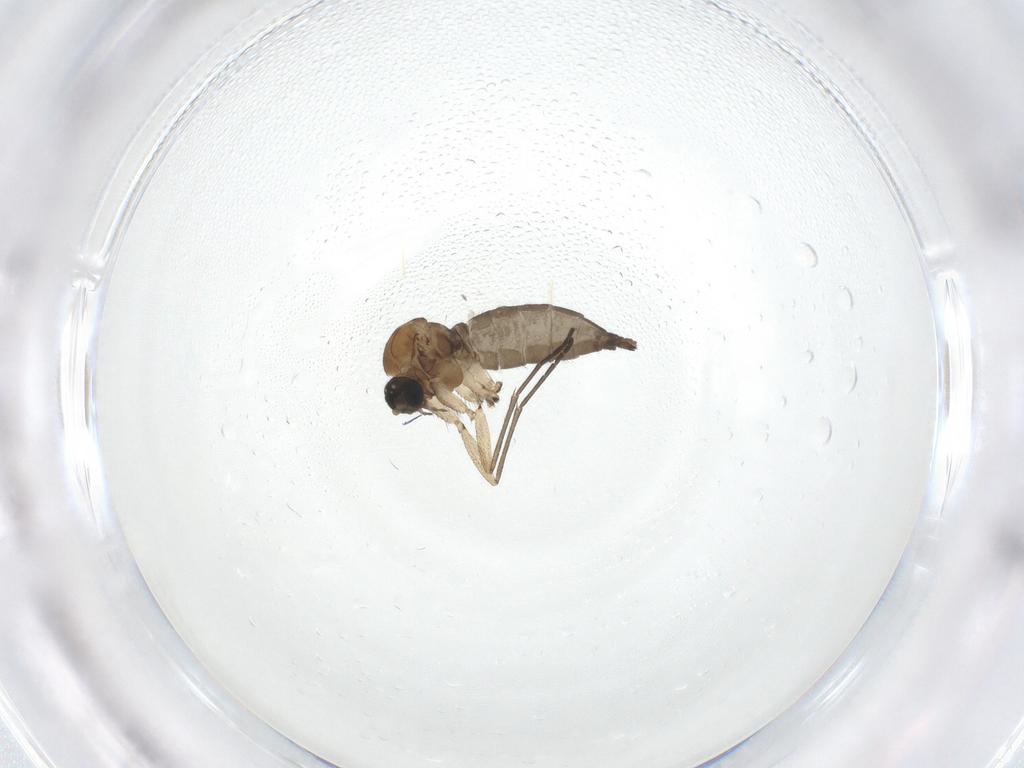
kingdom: Animalia
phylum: Arthropoda
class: Insecta
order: Diptera
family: Sciaridae
